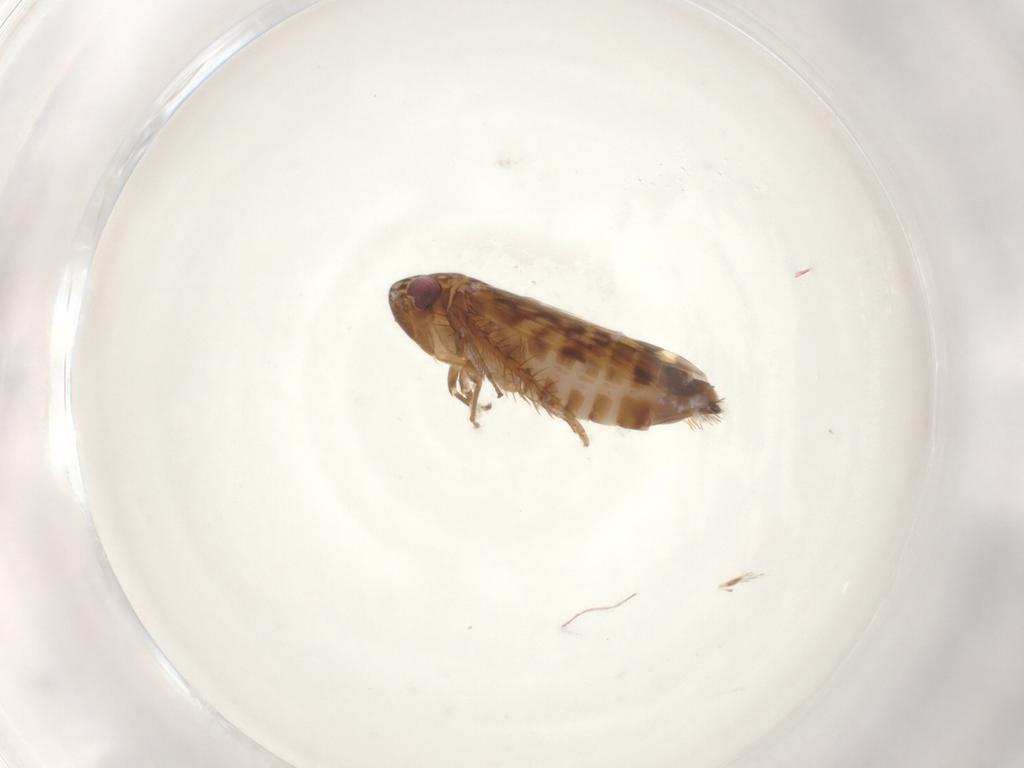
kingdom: Animalia
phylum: Arthropoda
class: Insecta
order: Hemiptera
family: Cicadellidae
